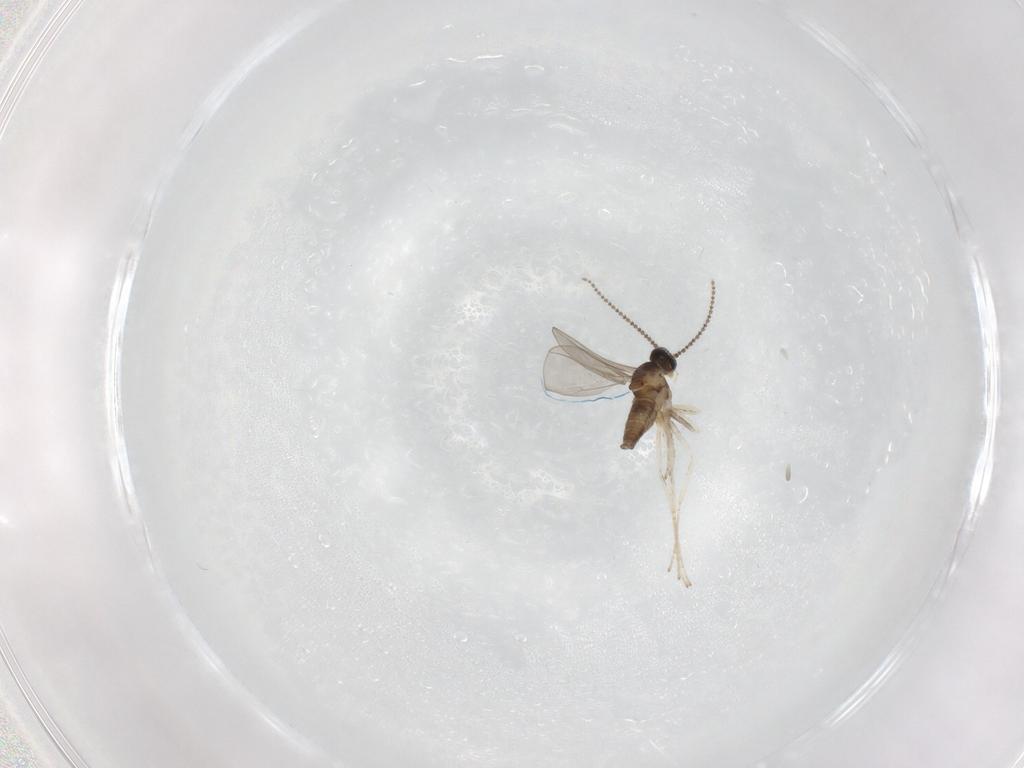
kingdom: Animalia
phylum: Arthropoda
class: Insecta
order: Diptera
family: Cecidomyiidae
